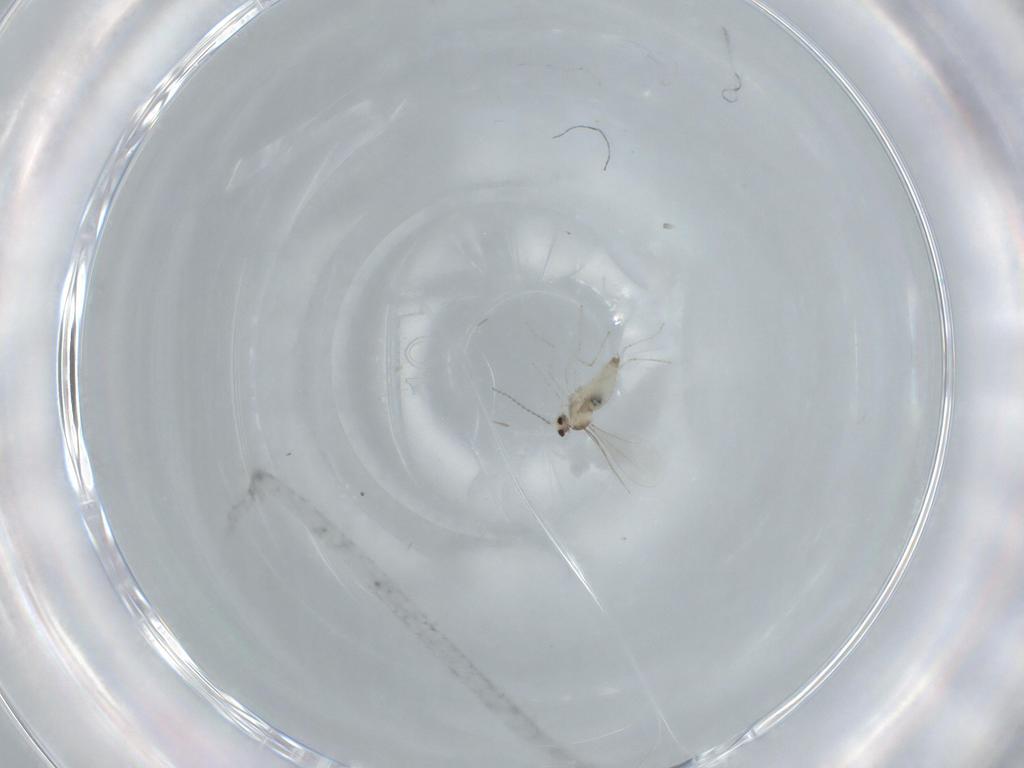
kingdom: Animalia
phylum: Arthropoda
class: Insecta
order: Diptera
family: Cecidomyiidae
